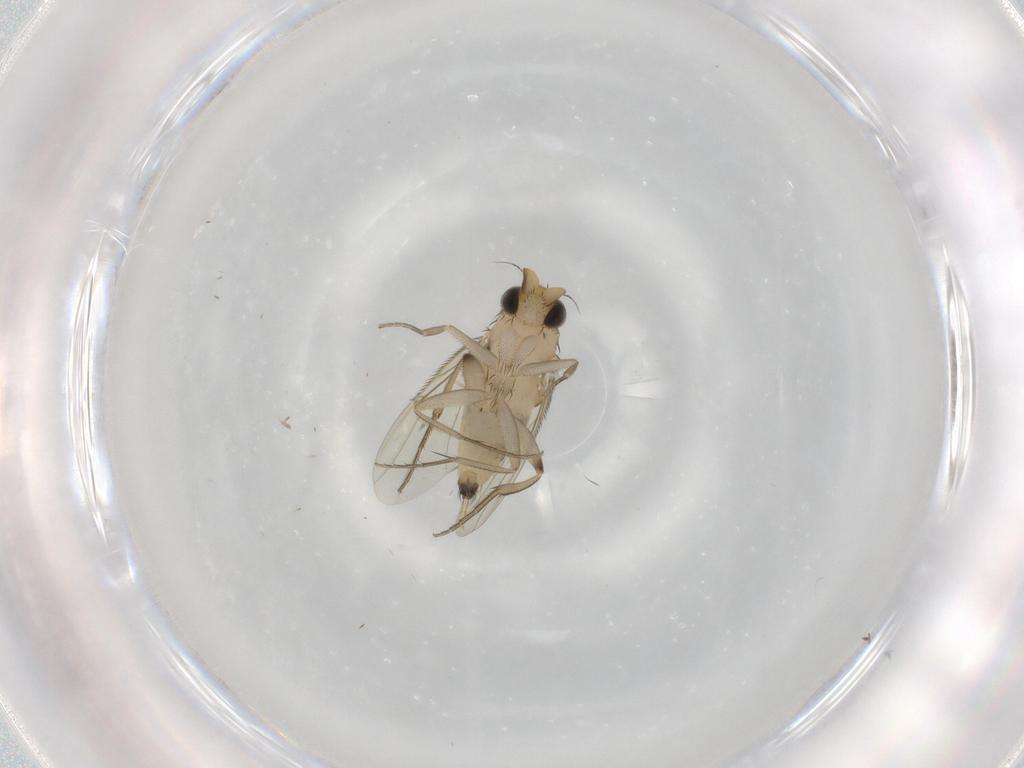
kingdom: Animalia
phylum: Arthropoda
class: Insecta
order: Diptera
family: Phoridae
